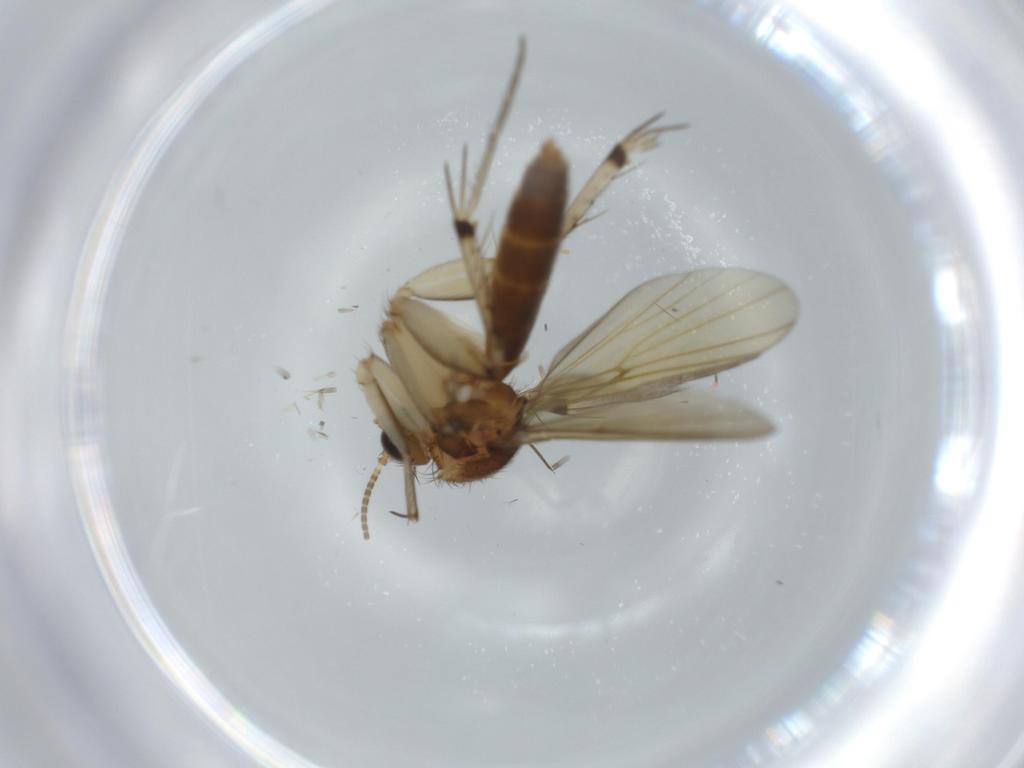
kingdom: Animalia
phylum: Arthropoda
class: Insecta
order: Diptera
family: Mycetophilidae
